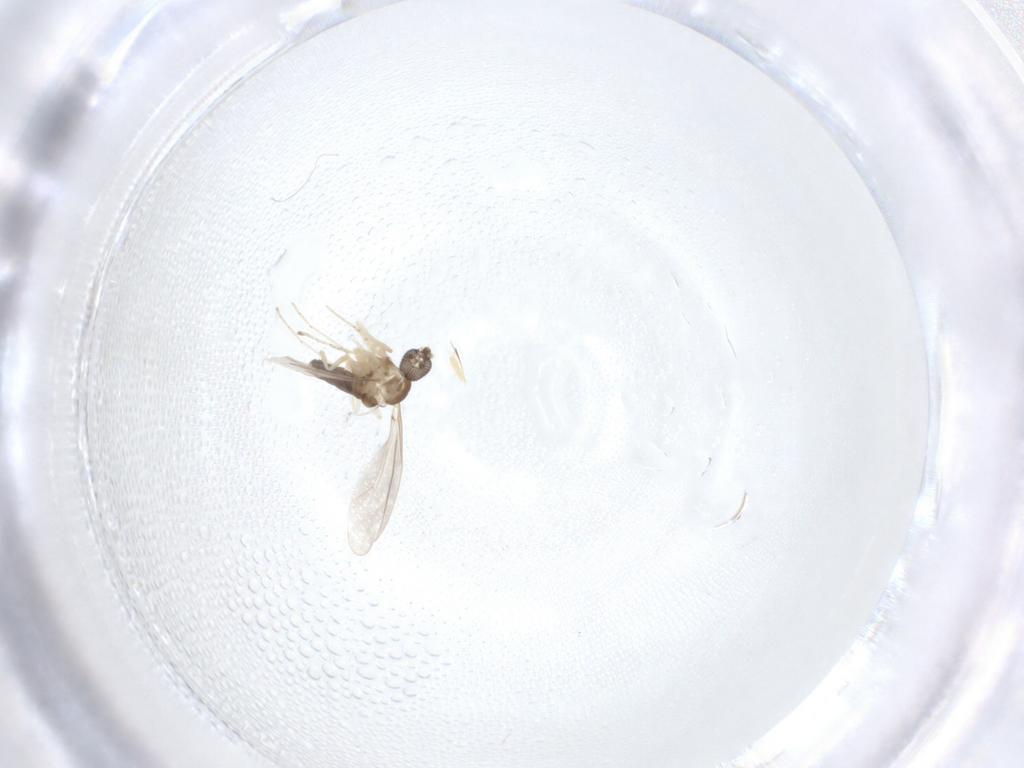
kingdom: Animalia
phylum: Arthropoda
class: Insecta
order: Diptera
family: Cecidomyiidae
